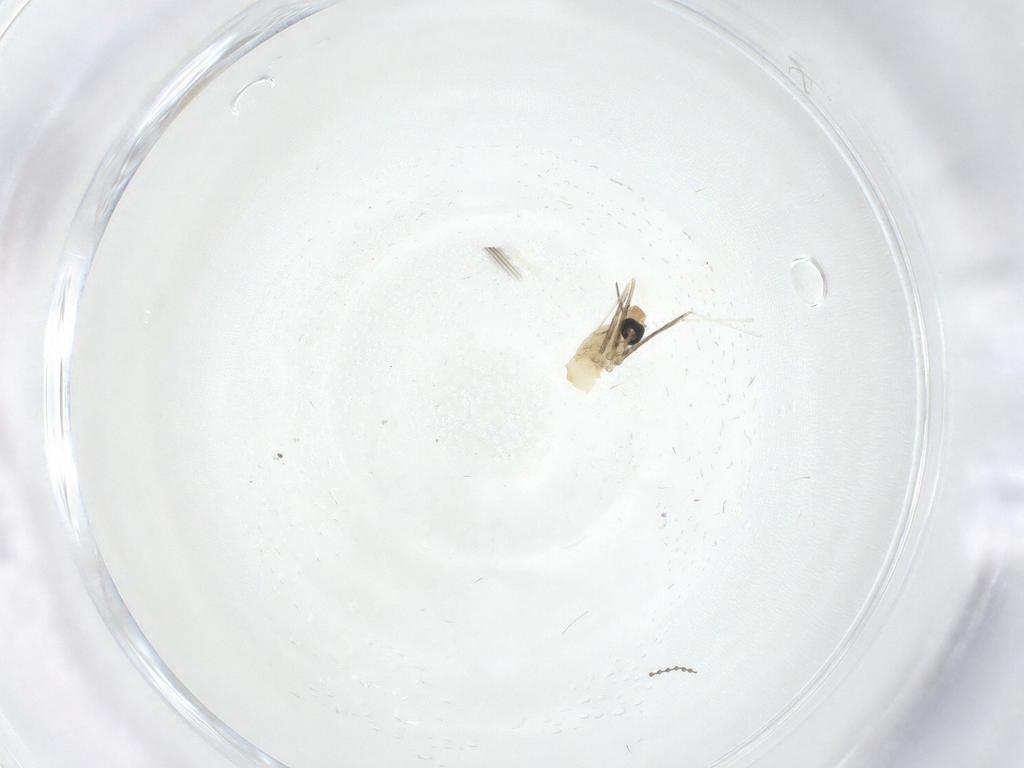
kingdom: Animalia
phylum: Arthropoda
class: Insecta
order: Diptera
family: Cecidomyiidae
